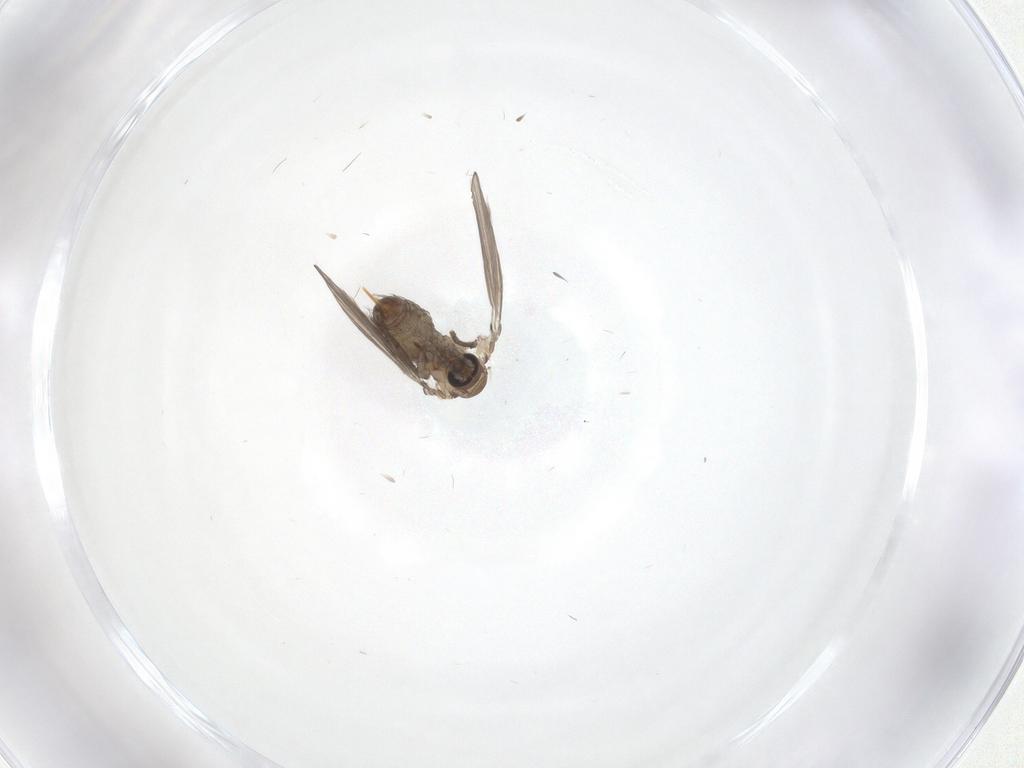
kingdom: Animalia
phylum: Arthropoda
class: Insecta
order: Diptera
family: Psychodidae
